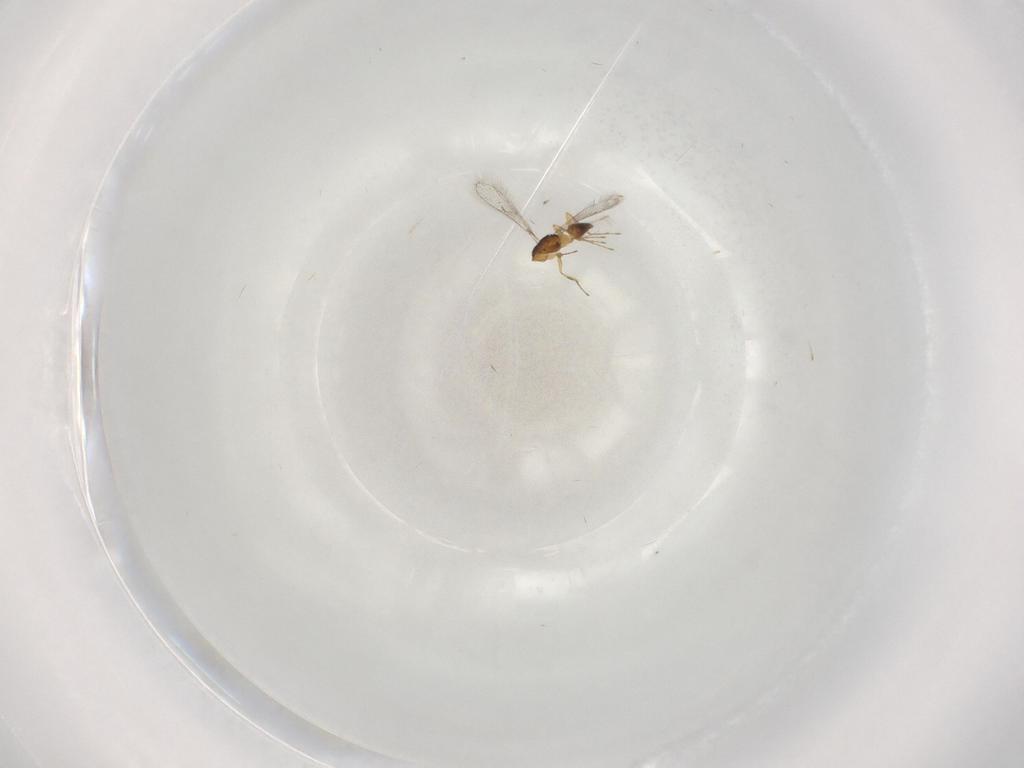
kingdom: Animalia
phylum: Arthropoda
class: Insecta
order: Hymenoptera
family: Mymaridae
